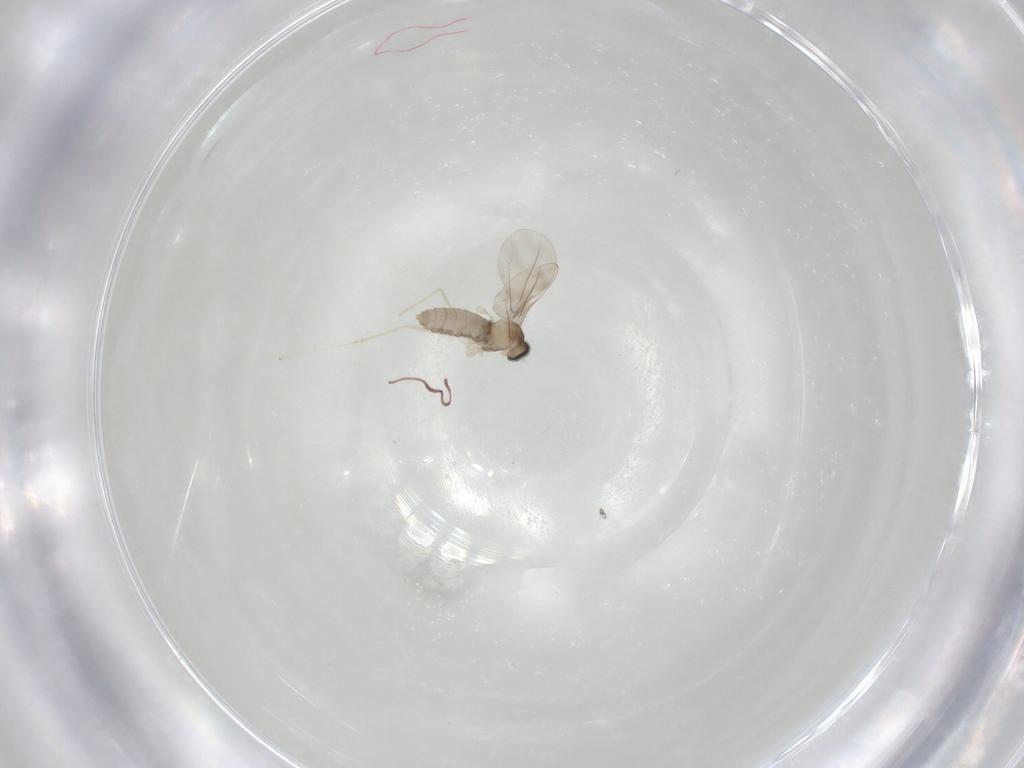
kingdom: Animalia
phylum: Arthropoda
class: Insecta
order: Diptera
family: Cecidomyiidae
